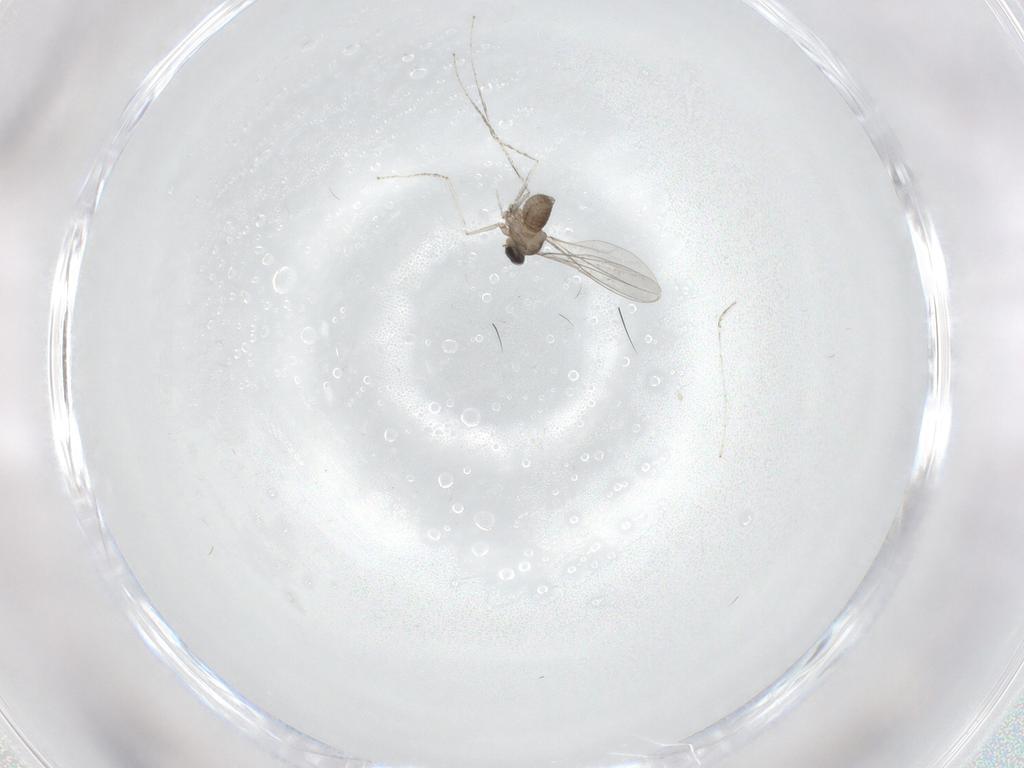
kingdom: Animalia
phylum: Arthropoda
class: Insecta
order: Diptera
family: Cecidomyiidae
